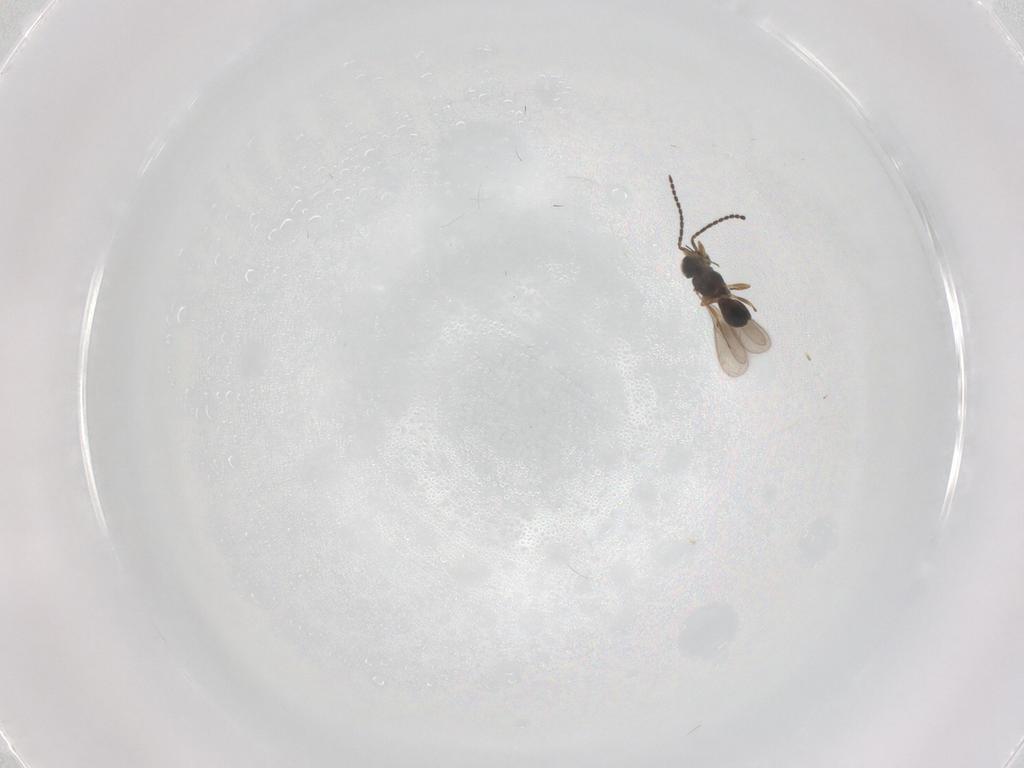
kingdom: Animalia
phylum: Arthropoda
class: Insecta
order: Hymenoptera
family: Scelionidae
